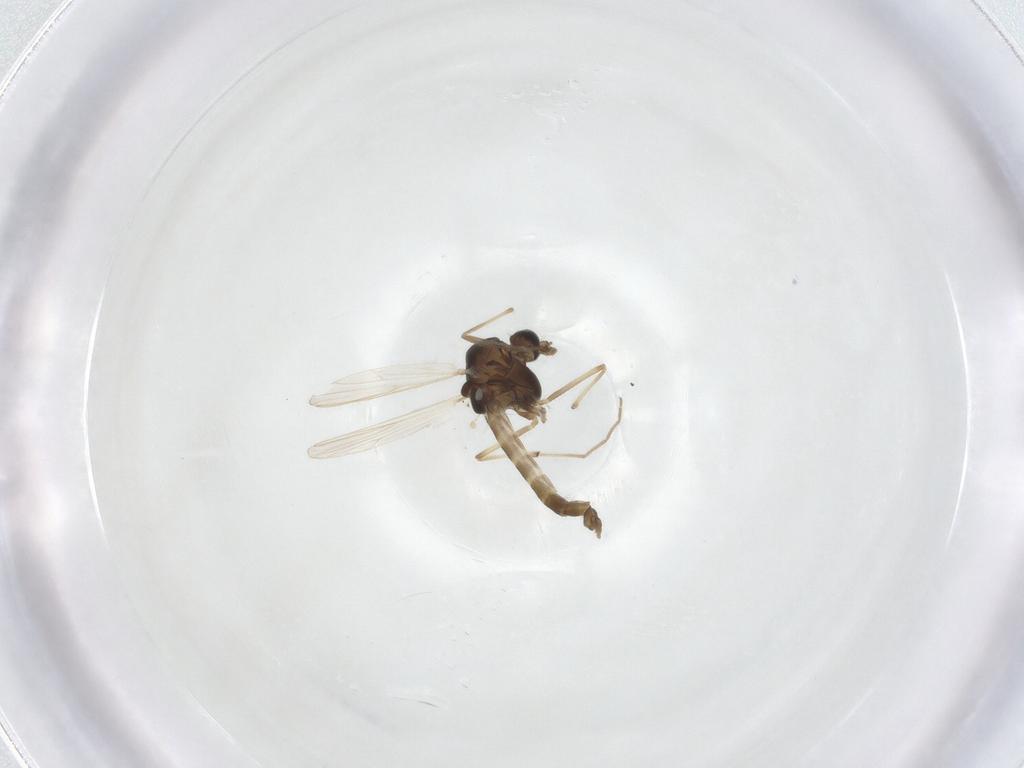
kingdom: Animalia
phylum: Arthropoda
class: Insecta
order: Diptera
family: Chironomidae
